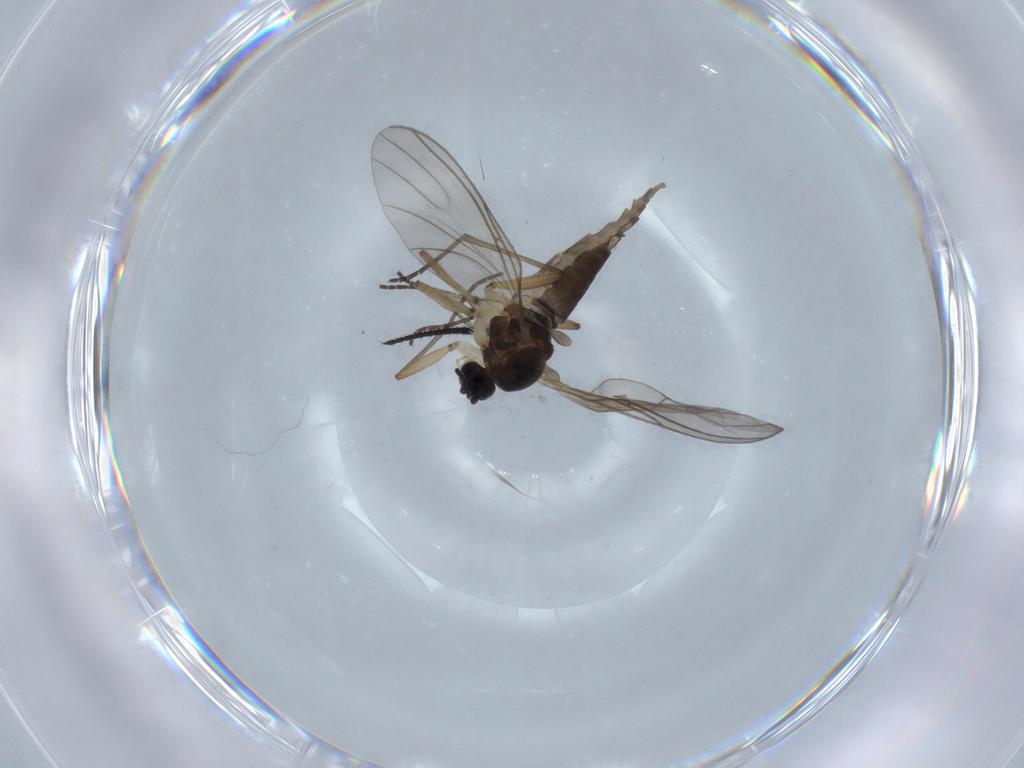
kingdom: Animalia
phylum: Arthropoda
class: Insecta
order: Diptera
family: Sciaridae
